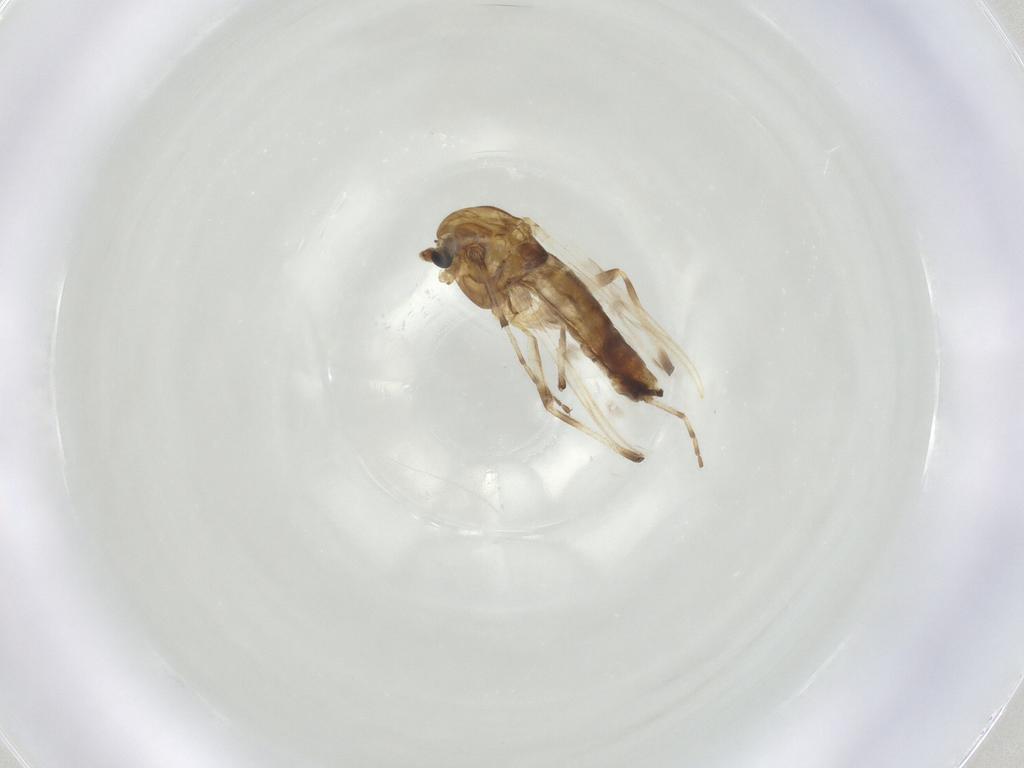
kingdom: Animalia
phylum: Arthropoda
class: Insecta
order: Diptera
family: Chironomidae
